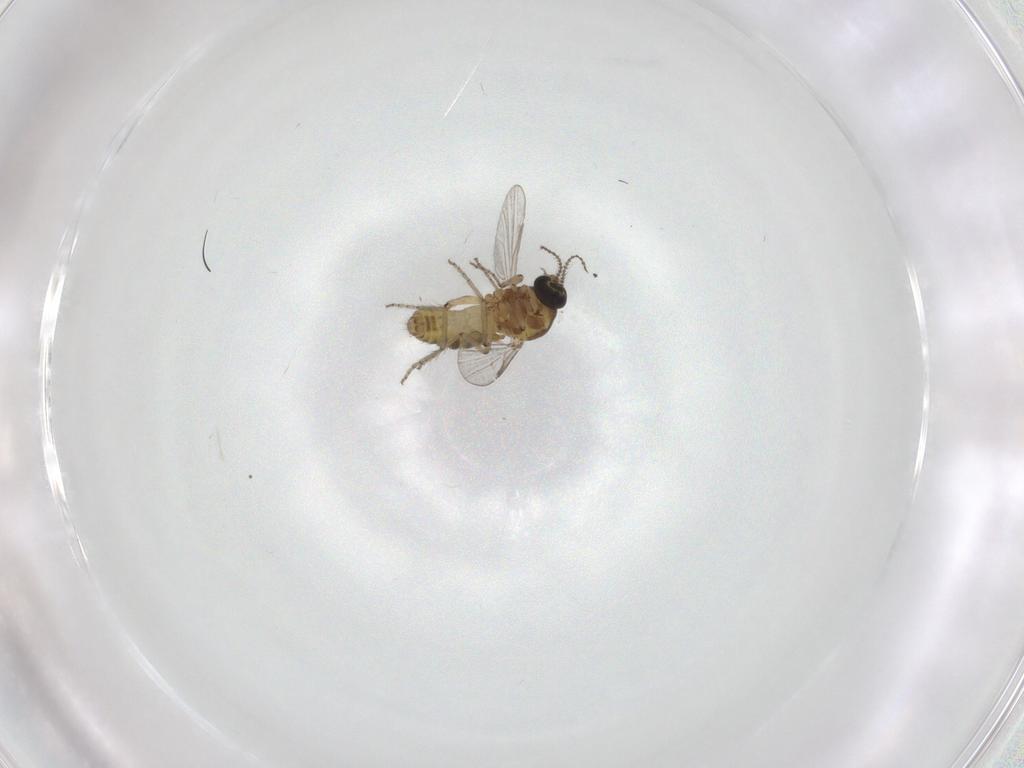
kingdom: Animalia
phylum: Arthropoda
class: Insecta
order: Diptera
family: Ceratopogonidae
